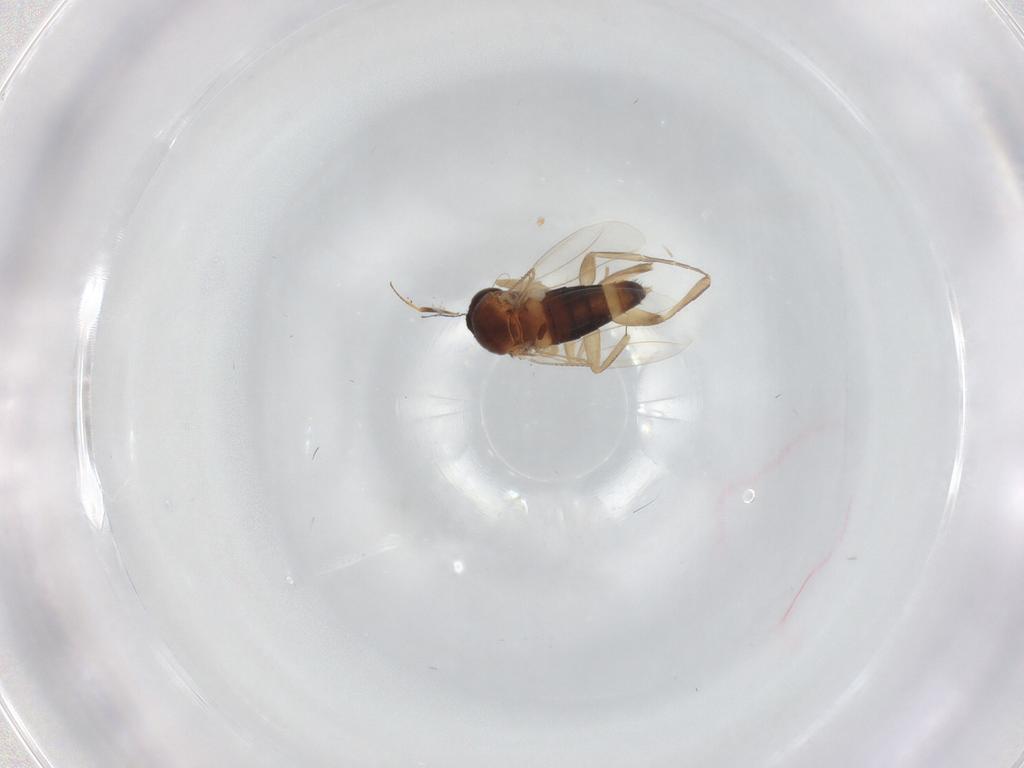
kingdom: Animalia
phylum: Arthropoda
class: Insecta
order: Diptera
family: Phoridae
